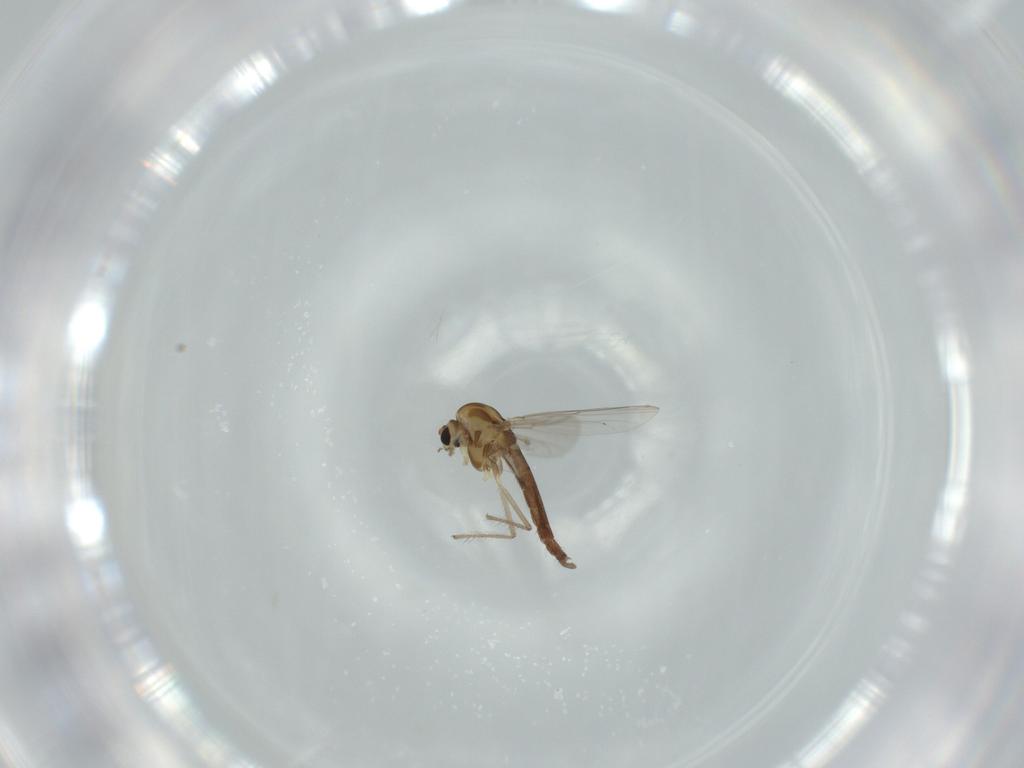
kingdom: Animalia
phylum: Arthropoda
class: Insecta
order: Diptera
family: Chironomidae
